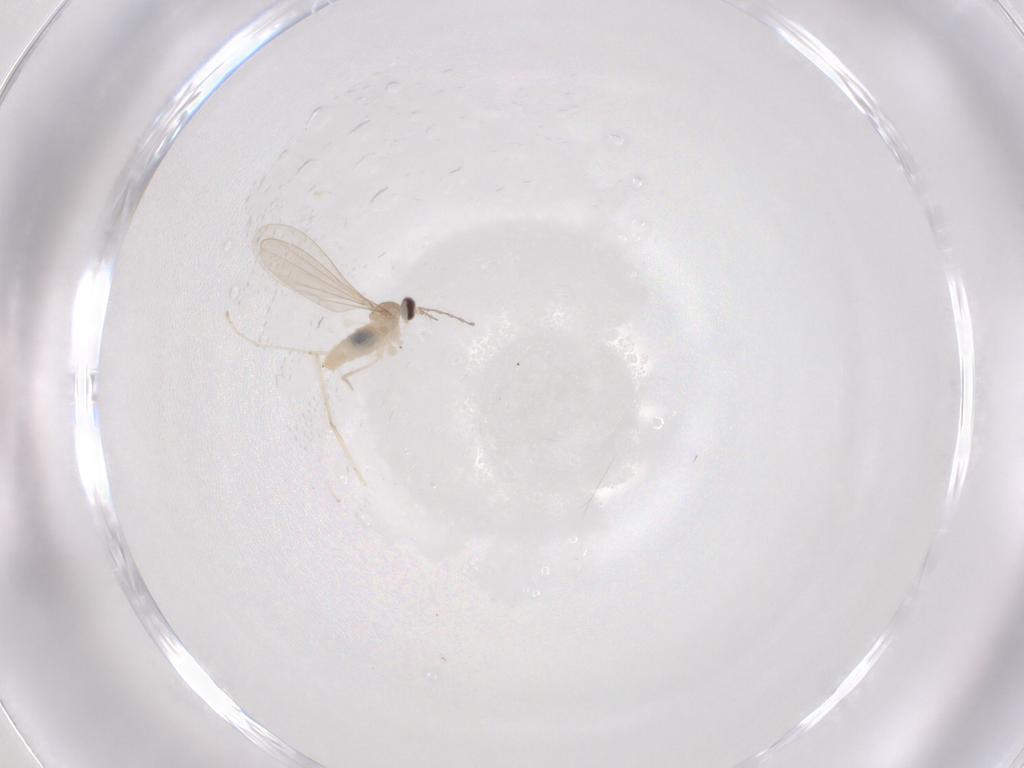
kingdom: Animalia
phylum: Arthropoda
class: Insecta
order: Diptera
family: Cecidomyiidae
